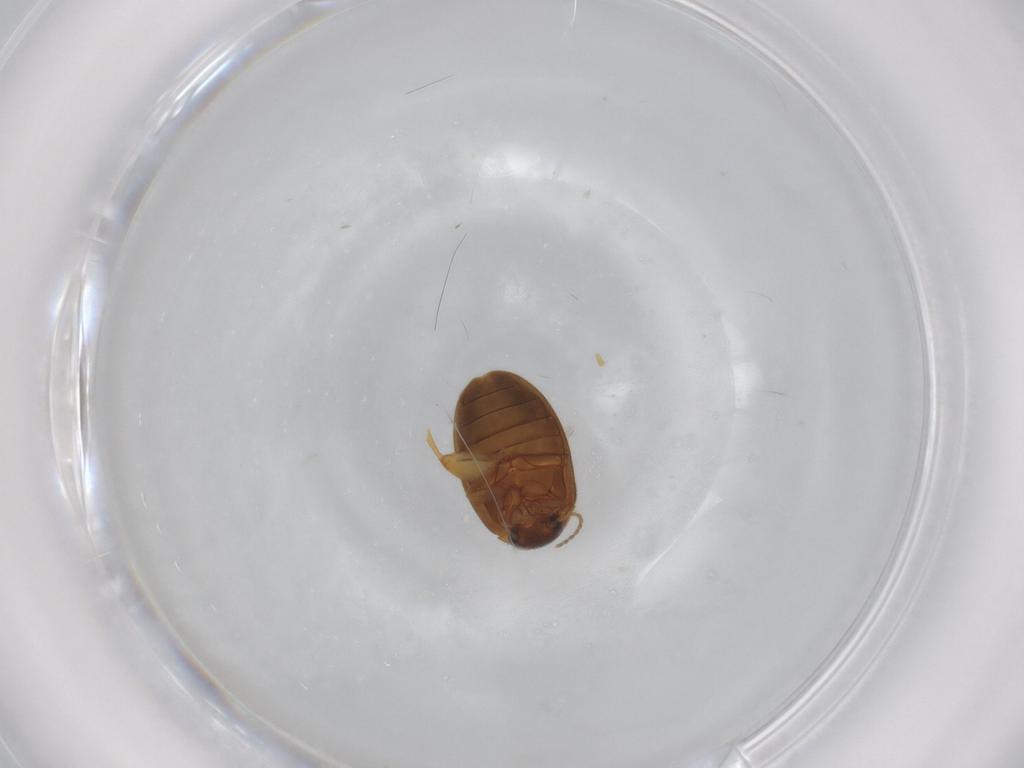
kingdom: Animalia
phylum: Arthropoda
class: Insecta
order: Coleoptera
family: Scirtidae
